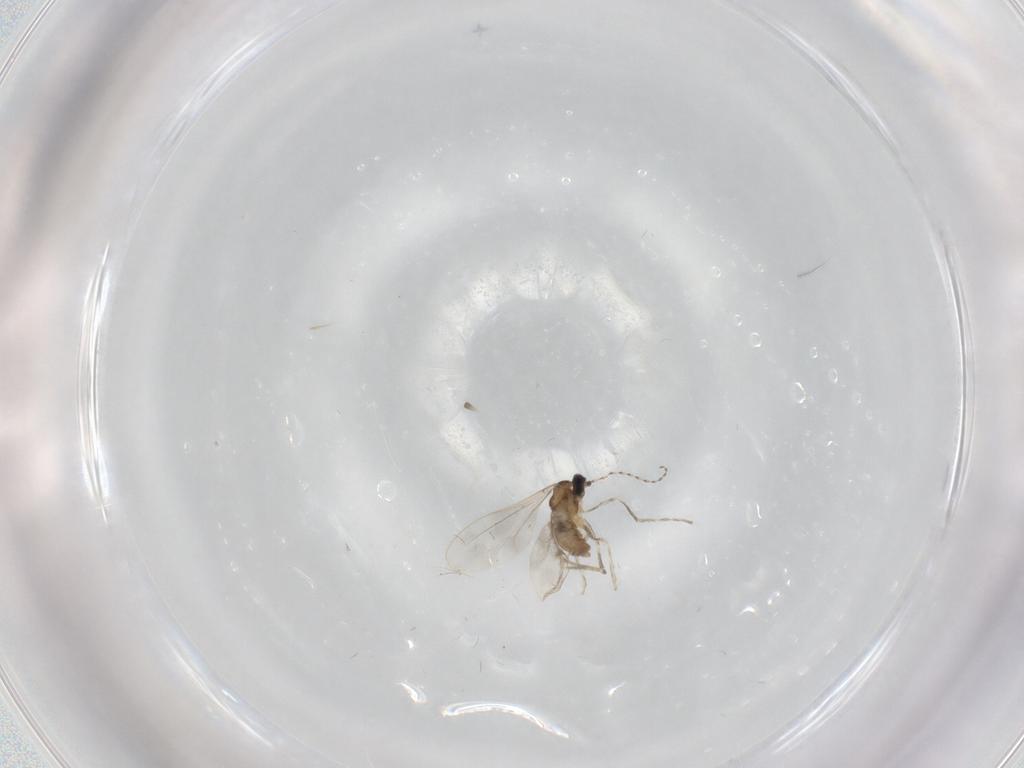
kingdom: Animalia
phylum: Arthropoda
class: Insecta
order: Diptera
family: Cecidomyiidae
